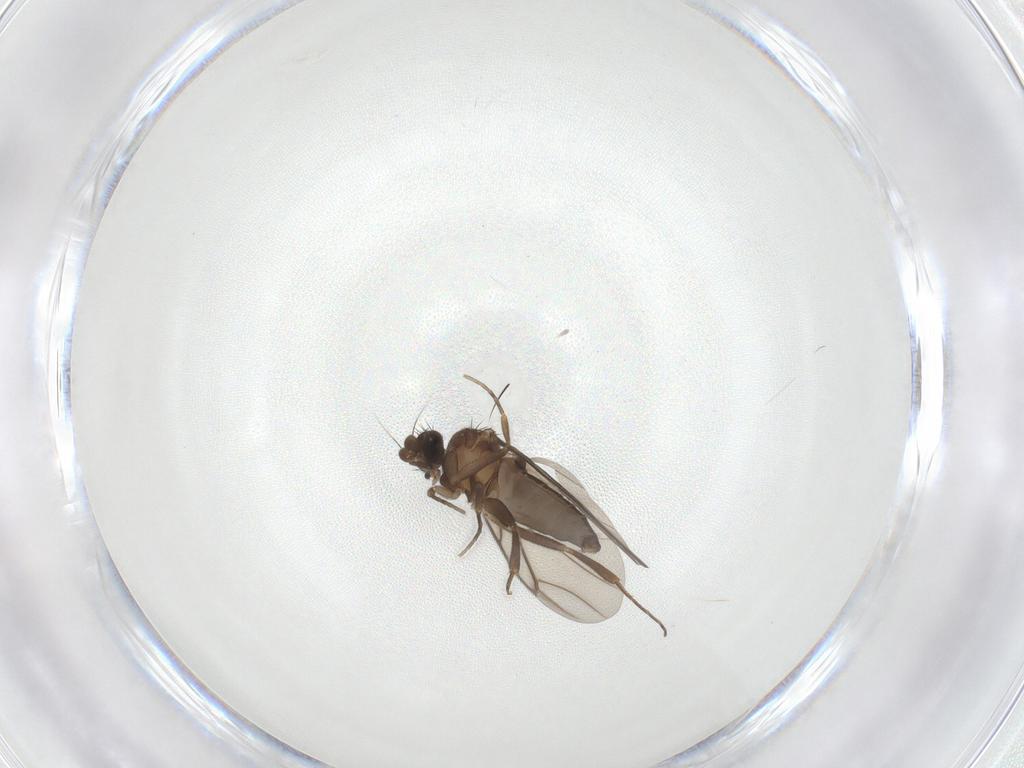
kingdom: Animalia
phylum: Arthropoda
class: Insecta
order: Diptera
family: Phoridae
